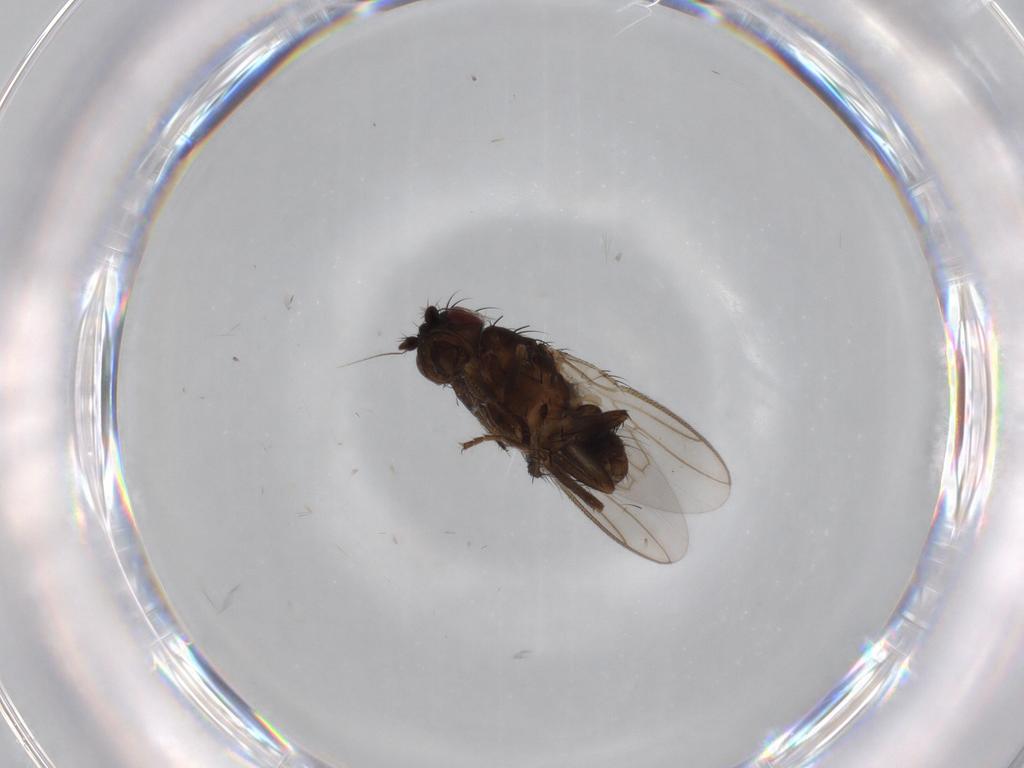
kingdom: Animalia
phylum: Arthropoda
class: Insecta
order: Diptera
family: Sphaeroceridae
